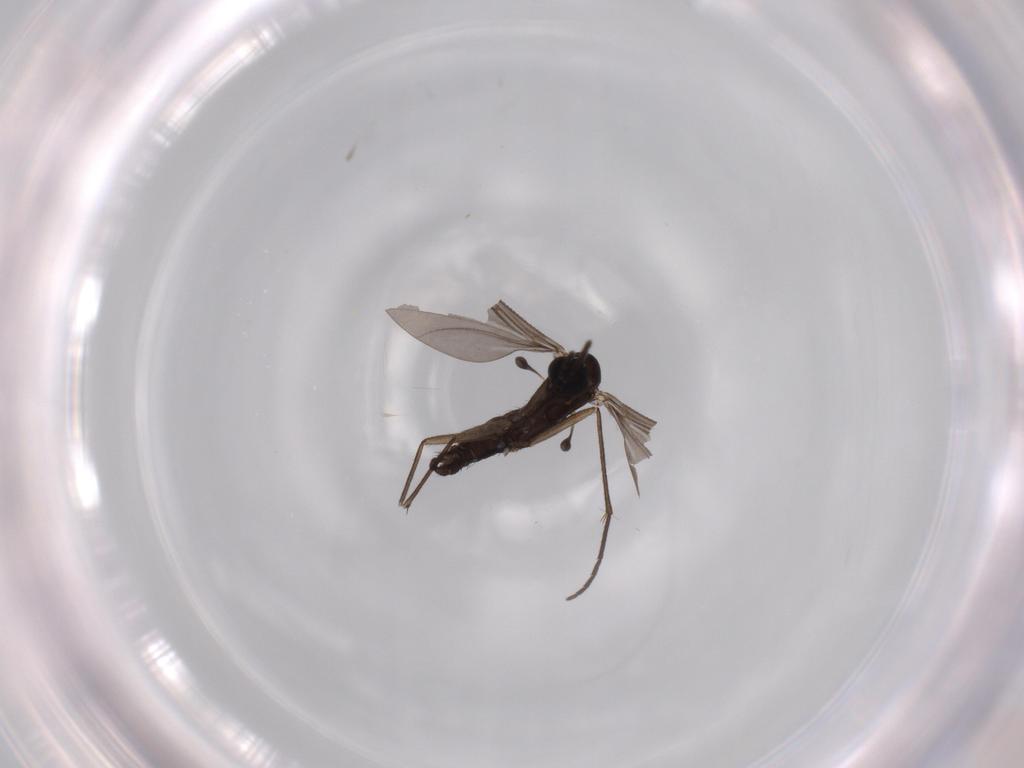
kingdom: Animalia
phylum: Arthropoda
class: Insecta
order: Diptera
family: Sciaridae
